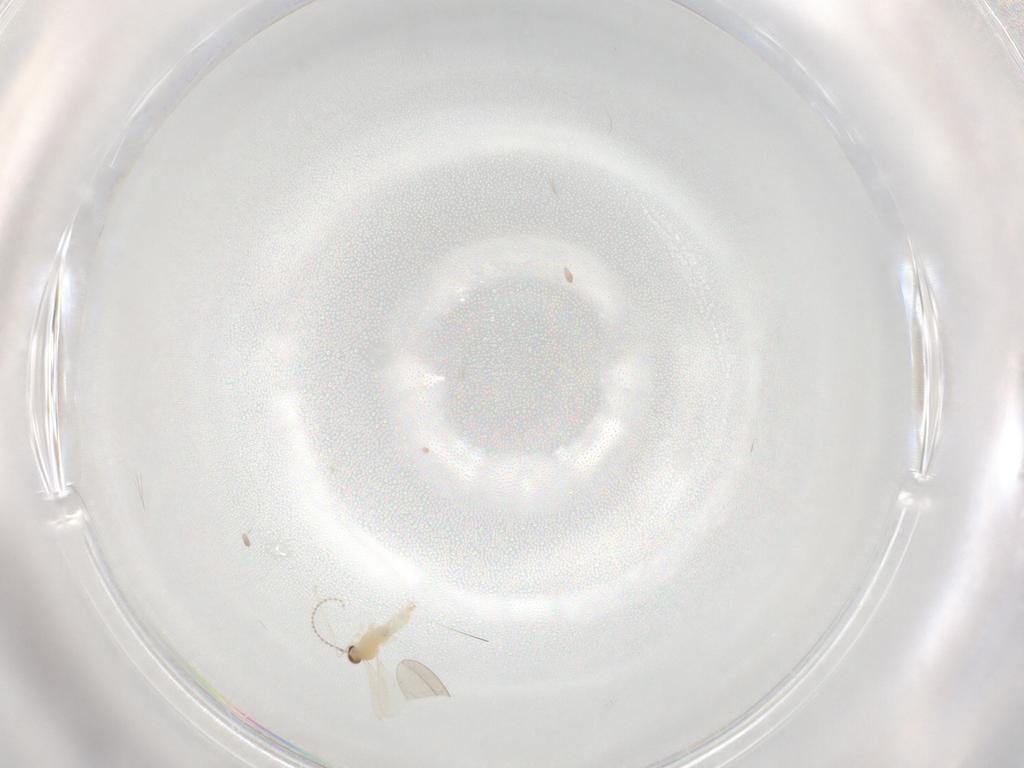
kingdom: Animalia
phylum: Arthropoda
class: Insecta
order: Diptera
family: Cecidomyiidae
